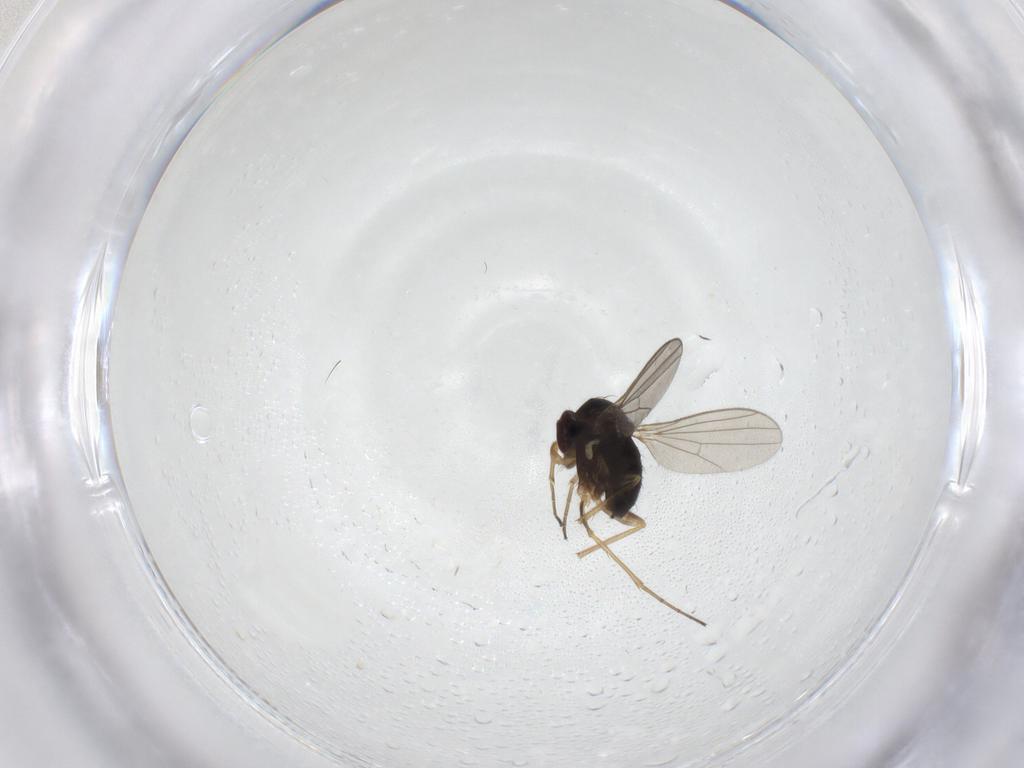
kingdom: Animalia
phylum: Arthropoda
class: Insecta
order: Diptera
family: Dolichopodidae
